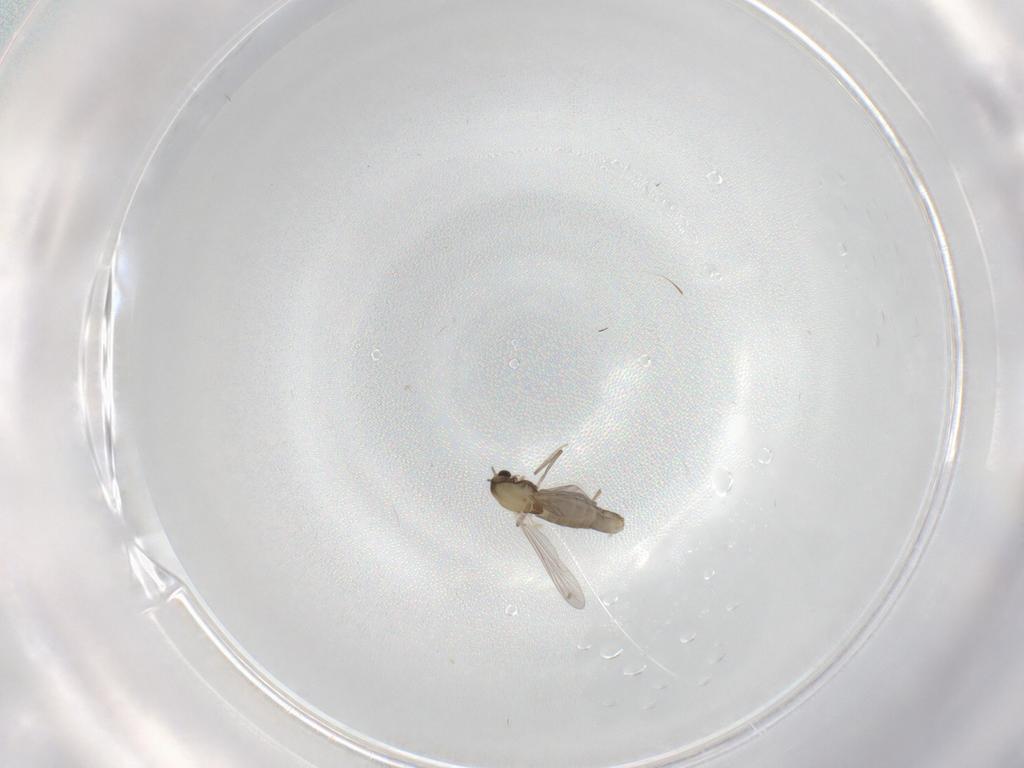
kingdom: Animalia
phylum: Arthropoda
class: Insecta
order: Diptera
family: Chironomidae
